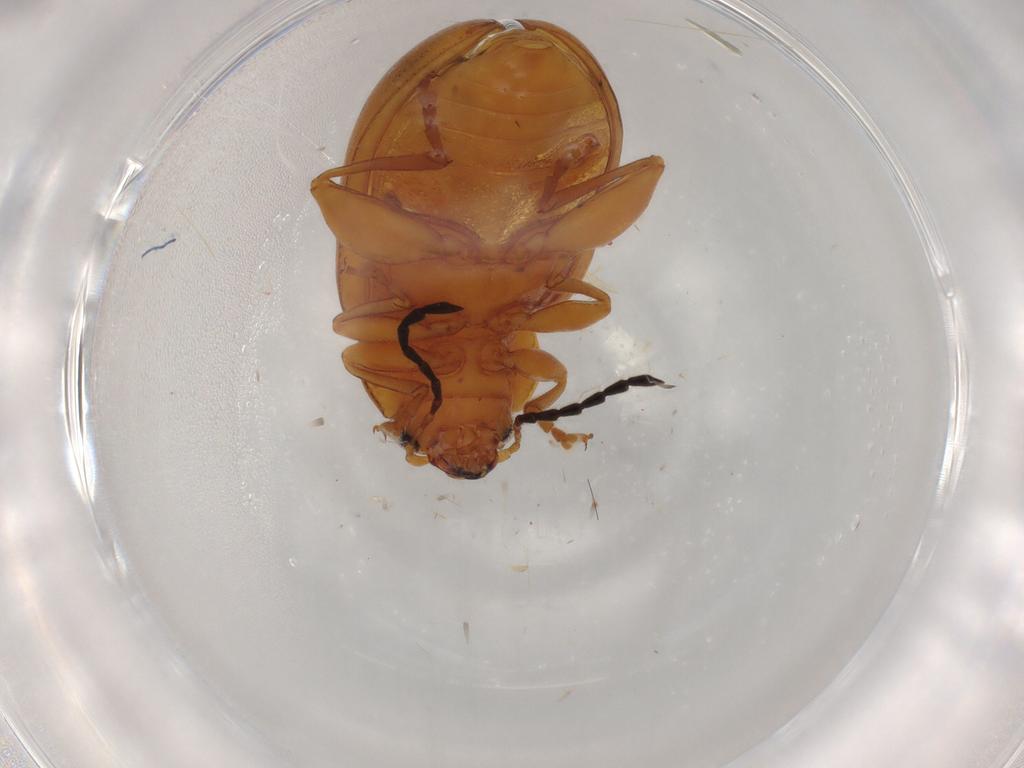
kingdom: Animalia
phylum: Arthropoda
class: Insecta
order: Coleoptera
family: Chrysomelidae
